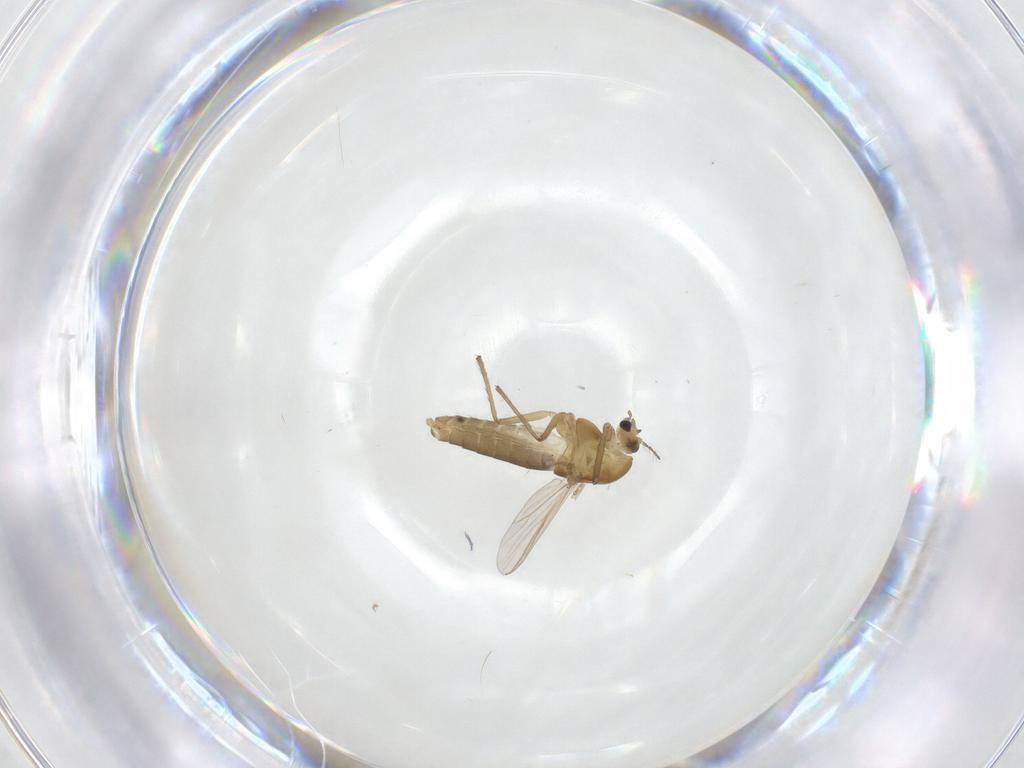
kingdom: Animalia
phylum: Arthropoda
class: Insecta
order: Diptera
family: Chironomidae
